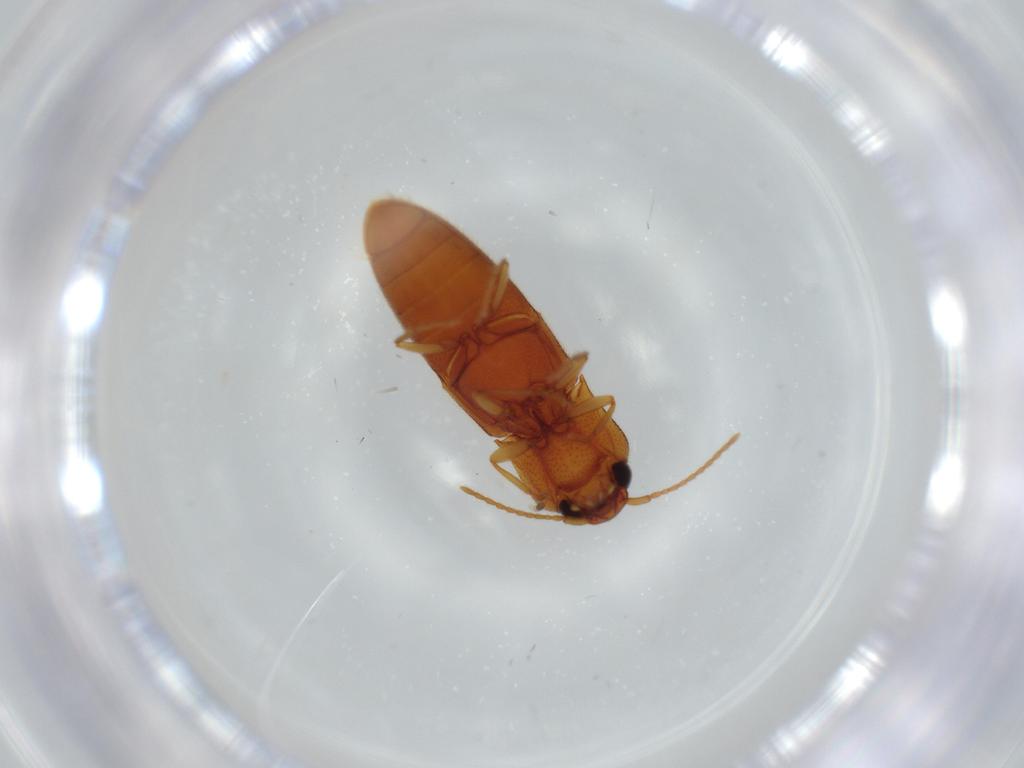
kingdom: Animalia
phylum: Arthropoda
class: Insecta
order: Coleoptera
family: Elateridae
